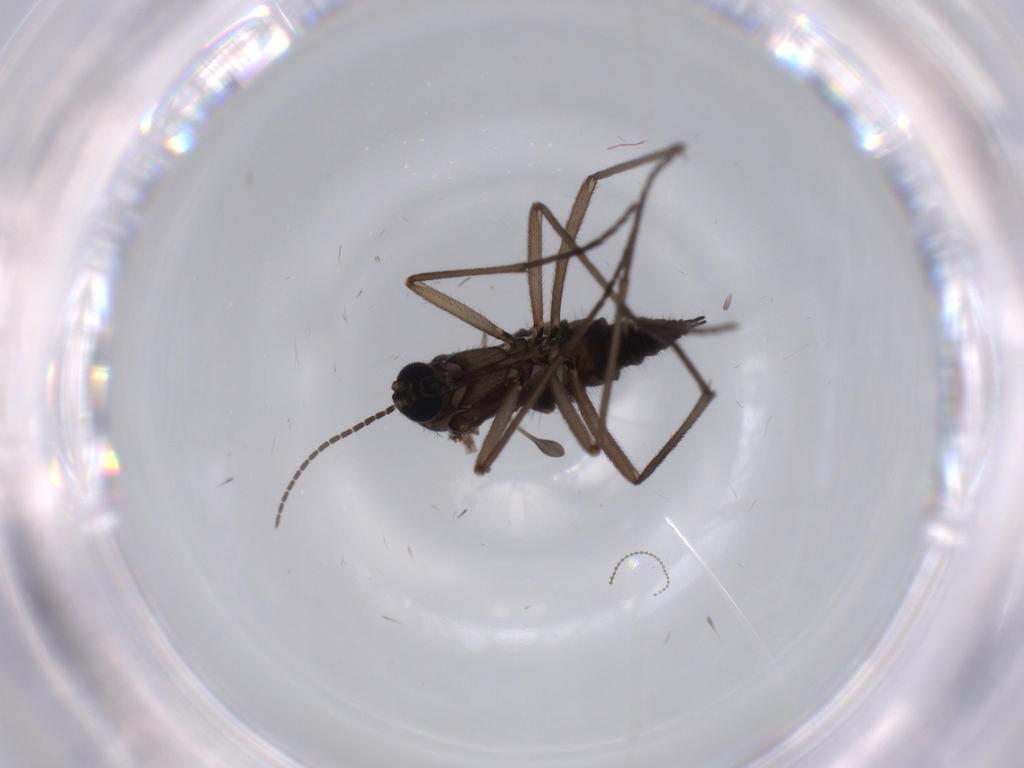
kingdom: Animalia
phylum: Arthropoda
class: Insecta
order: Diptera
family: Sciaridae
